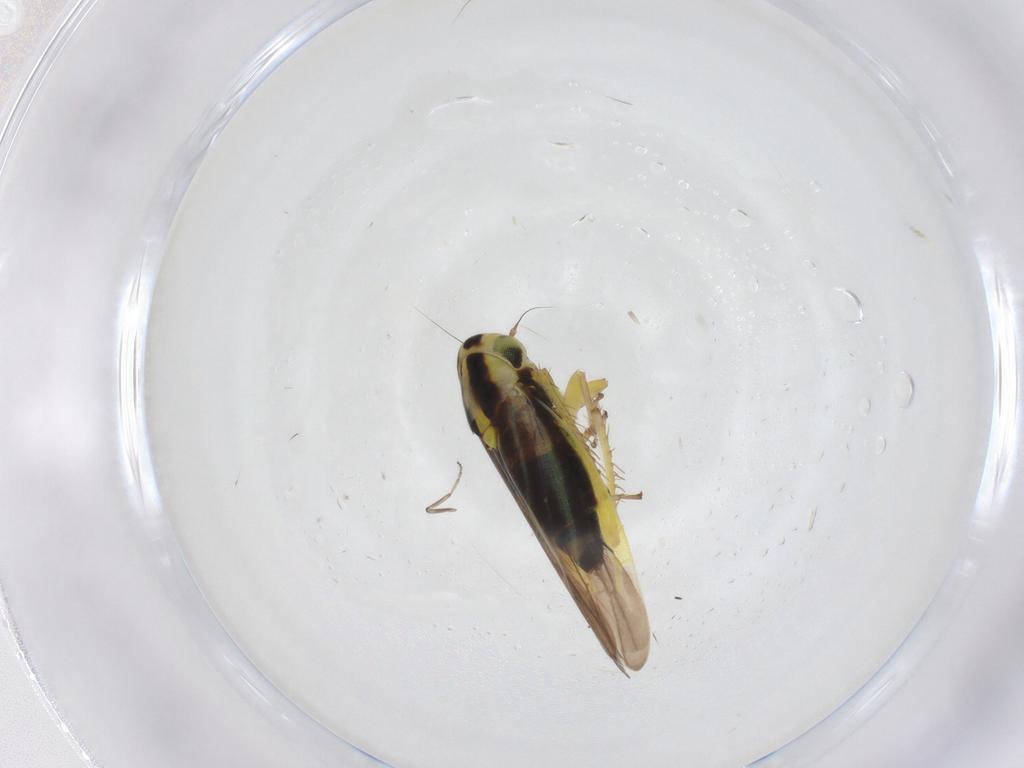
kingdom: Animalia
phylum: Arthropoda
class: Insecta
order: Hemiptera
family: Cicadellidae
